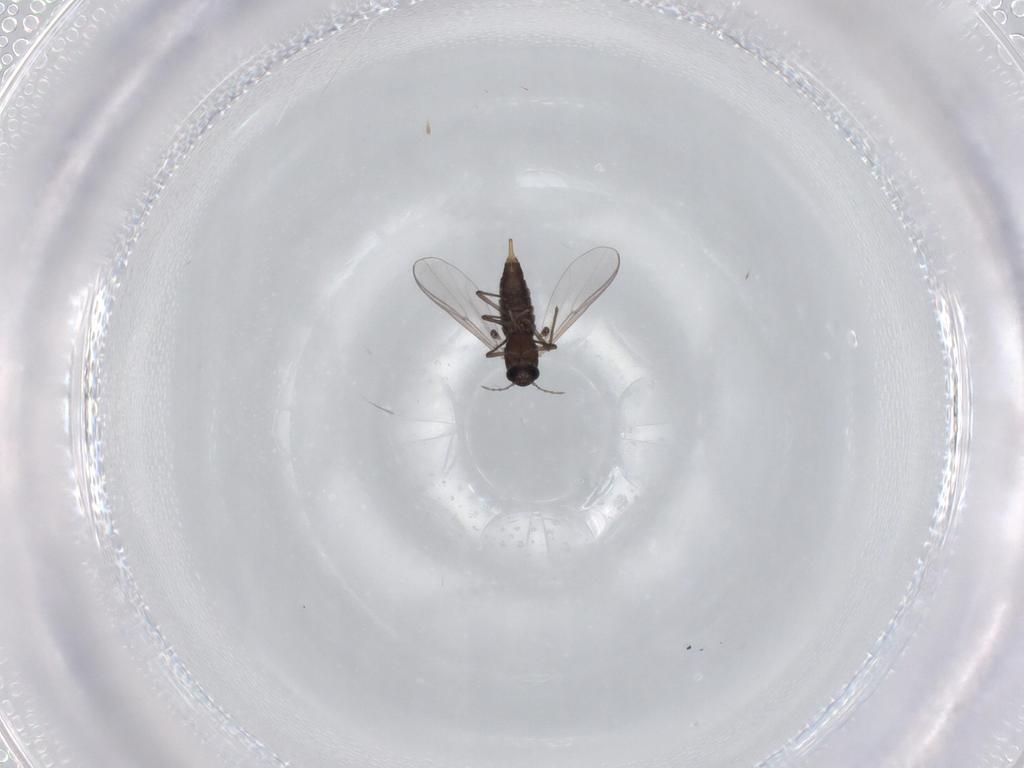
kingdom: Animalia
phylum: Arthropoda
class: Insecta
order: Diptera
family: Chironomidae
